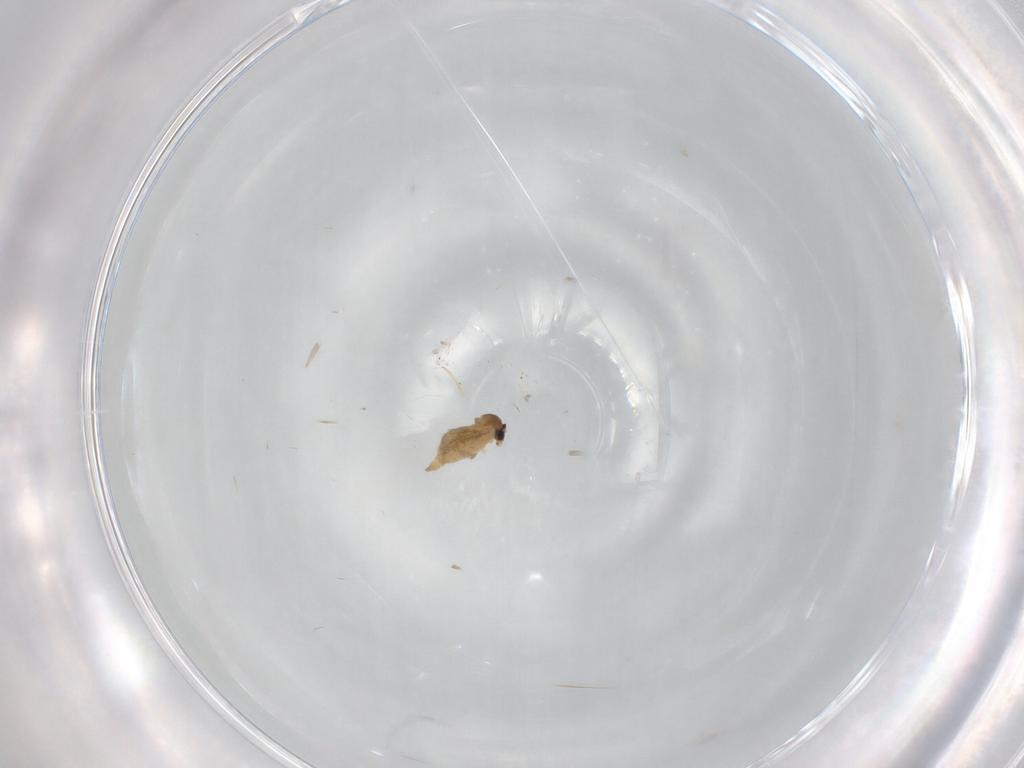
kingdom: Animalia
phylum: Arthropoda
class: Insecta
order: Diptera
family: Cecidomyiidae
